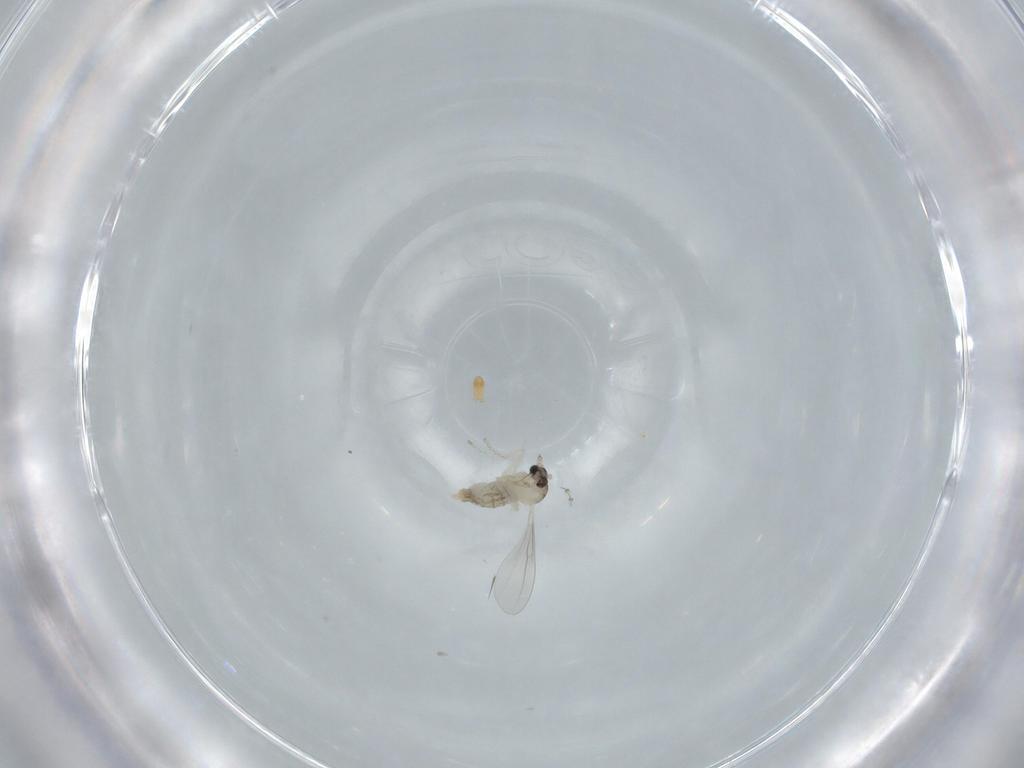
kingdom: Animalia
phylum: Arthropoda
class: Insecta
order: Diptera
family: Cecidomyiidae
